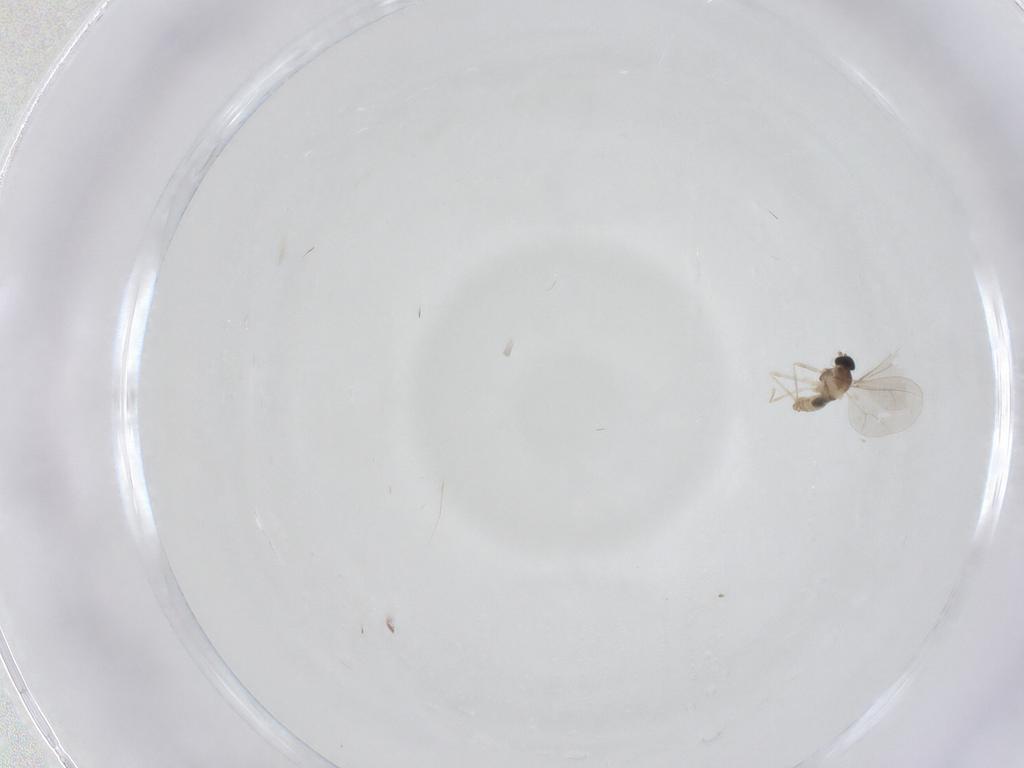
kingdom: Animalia
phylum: Arthropoda
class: Insecta
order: Diptera
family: Cecidomyiidae
